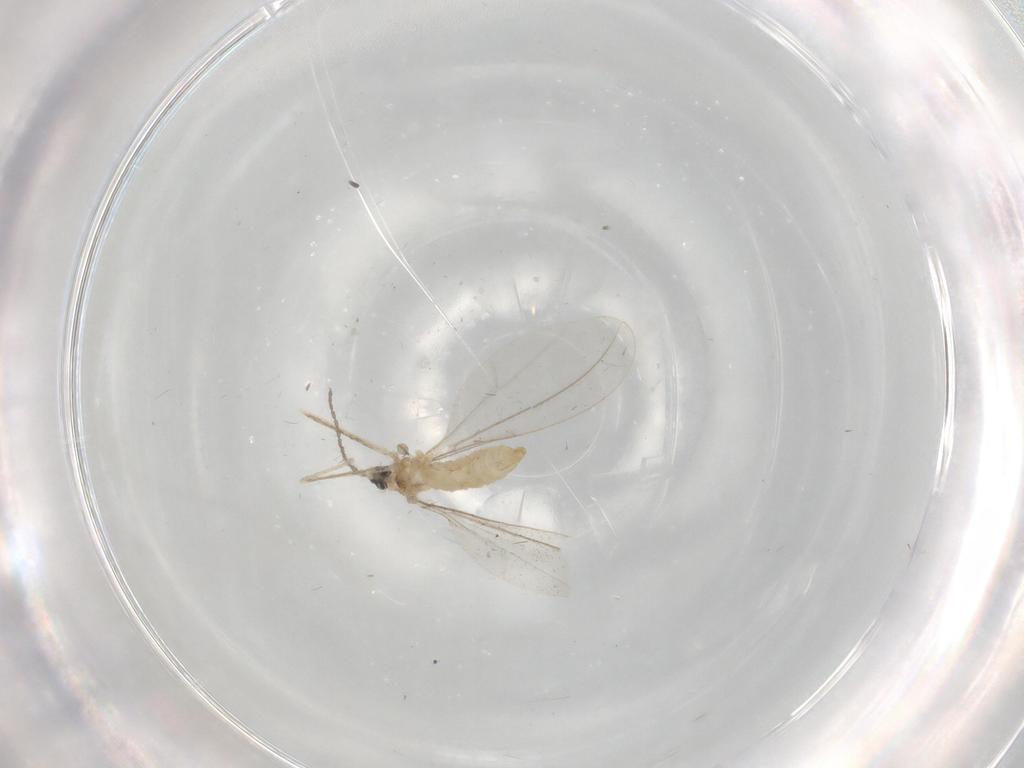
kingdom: Animalia
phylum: Arthropoda
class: Insecta
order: Diptera
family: Cecidomyiidae
